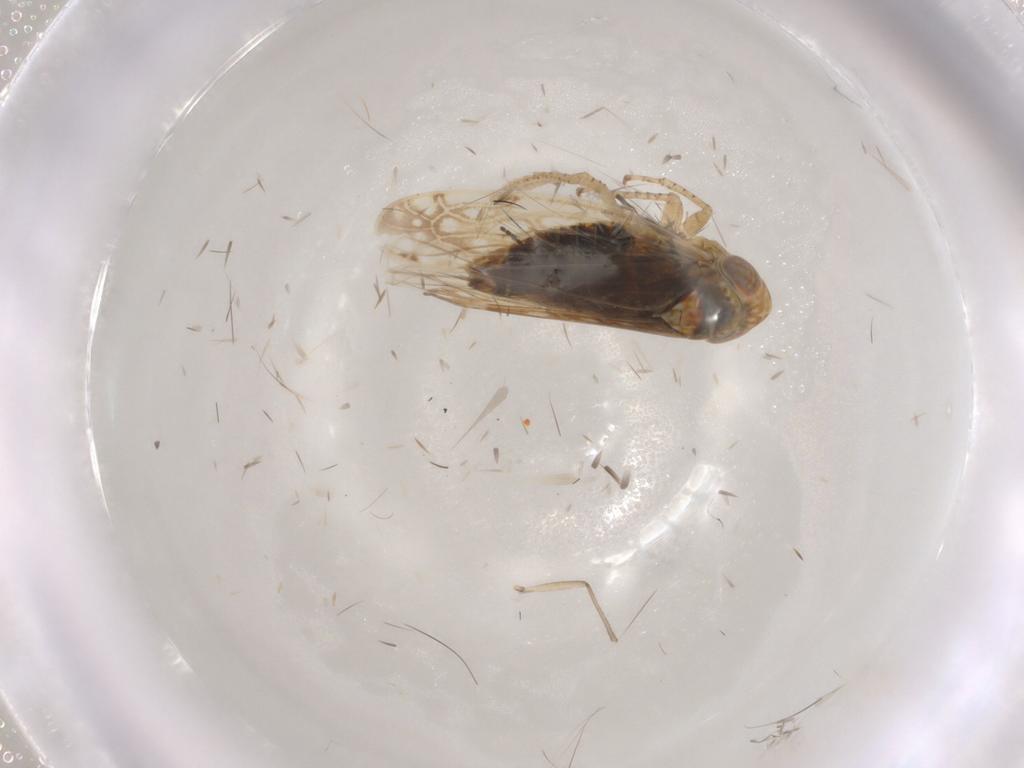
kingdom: Animalia
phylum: Arthropoda
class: Insecta
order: Hemiptera
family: Cicadellidae
